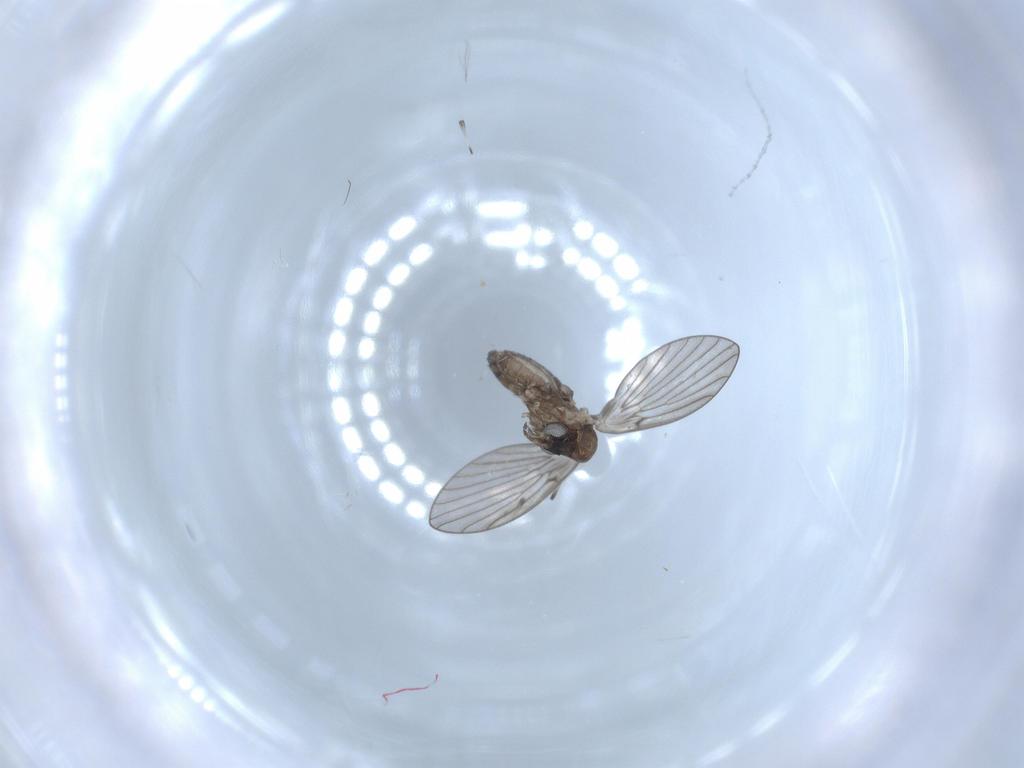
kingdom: Animalia
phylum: Arthropoda
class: Insecta
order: Diptera
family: Psychodidae
